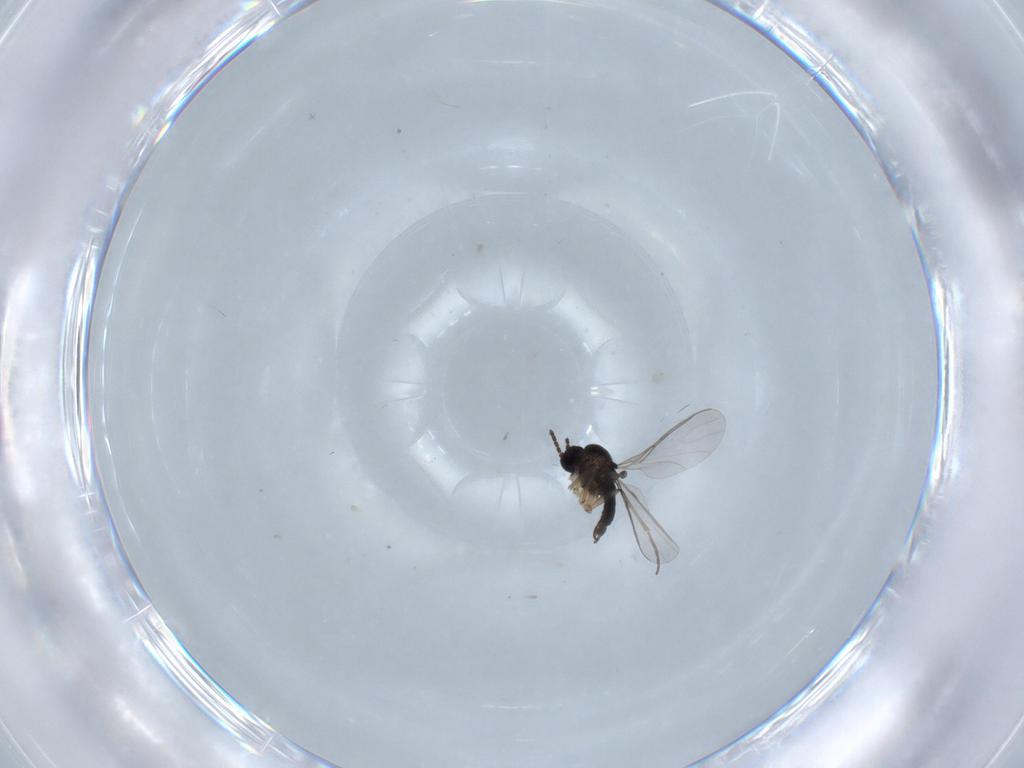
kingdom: Animalia
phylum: Arthropoda
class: Insecta
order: Diptera
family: Sciaridae
